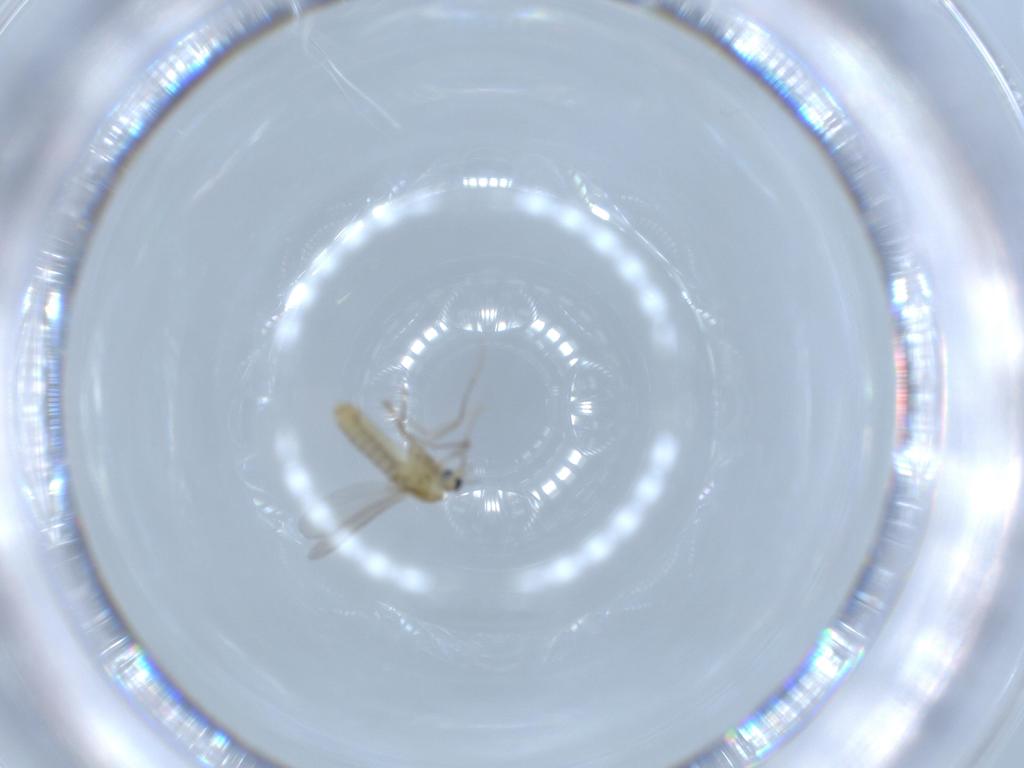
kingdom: Animalia
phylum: Arthropoda
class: Insecta
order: Diptera
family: Chironomidae
